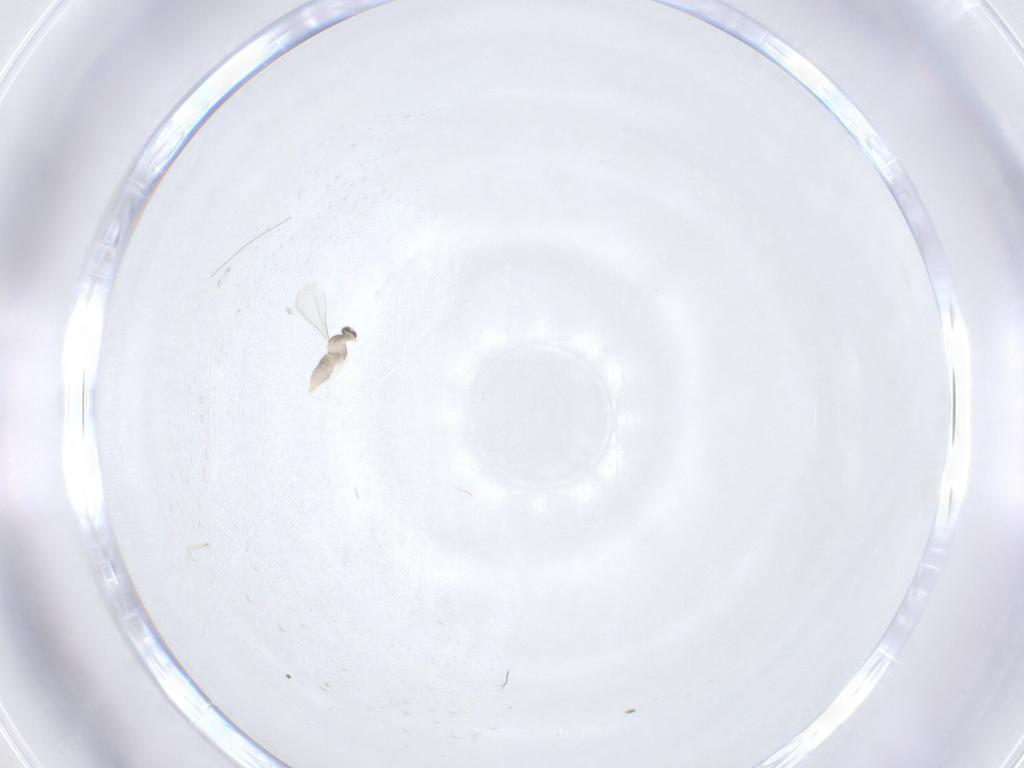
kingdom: Animalia
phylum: Arthropoda
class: Insecta
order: Diptera
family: Cecidomyiidae
